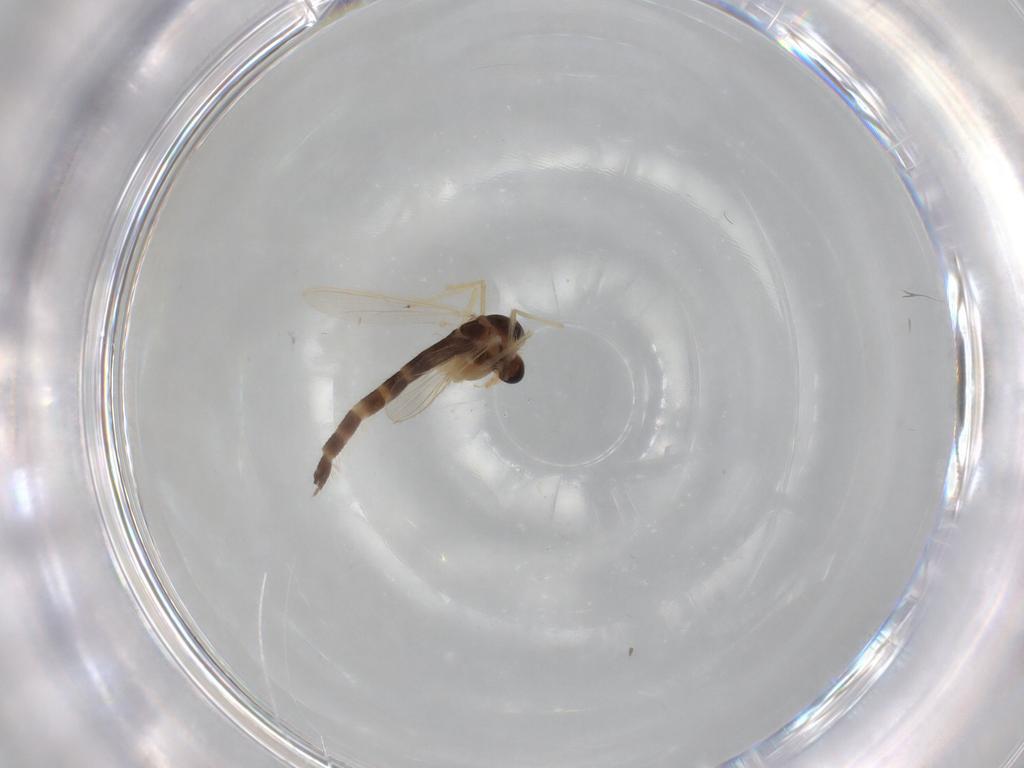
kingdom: Animalia
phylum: Arthropoda
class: Insecta
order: Diptera
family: Chironomidae
